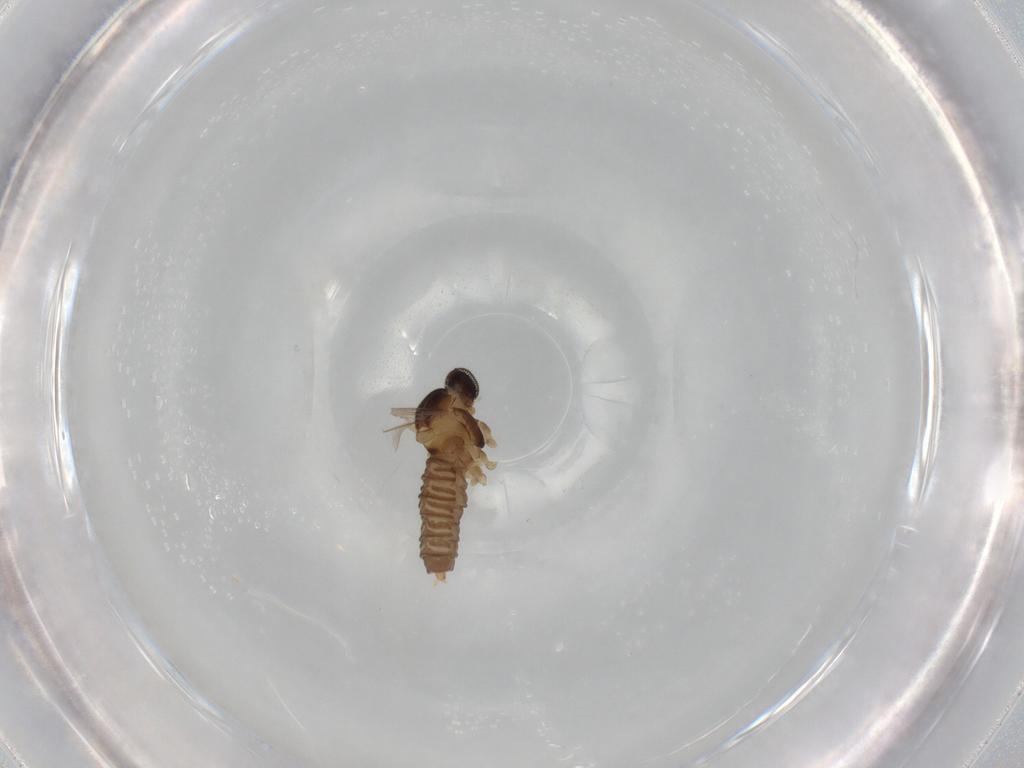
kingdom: Animalia
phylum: Arthropoda
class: Insecta
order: Diptera
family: Cecidomyiidae
